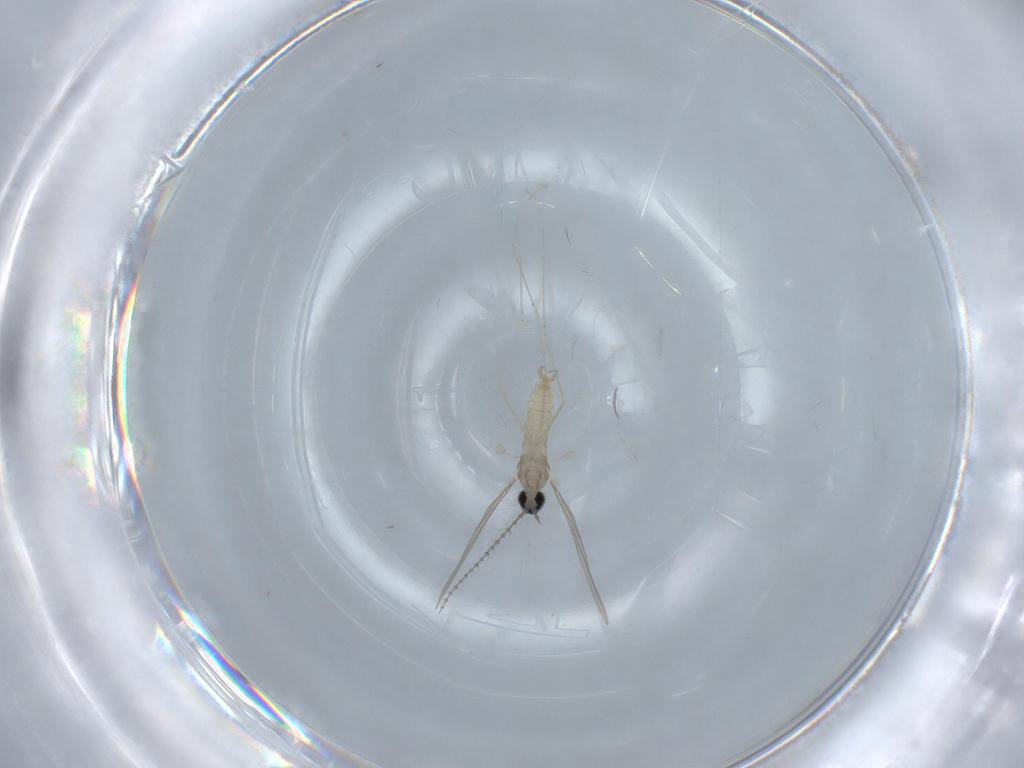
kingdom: Animalia
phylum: Arthropoda
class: Insecta
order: Diptera
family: Cecidomyiidae
